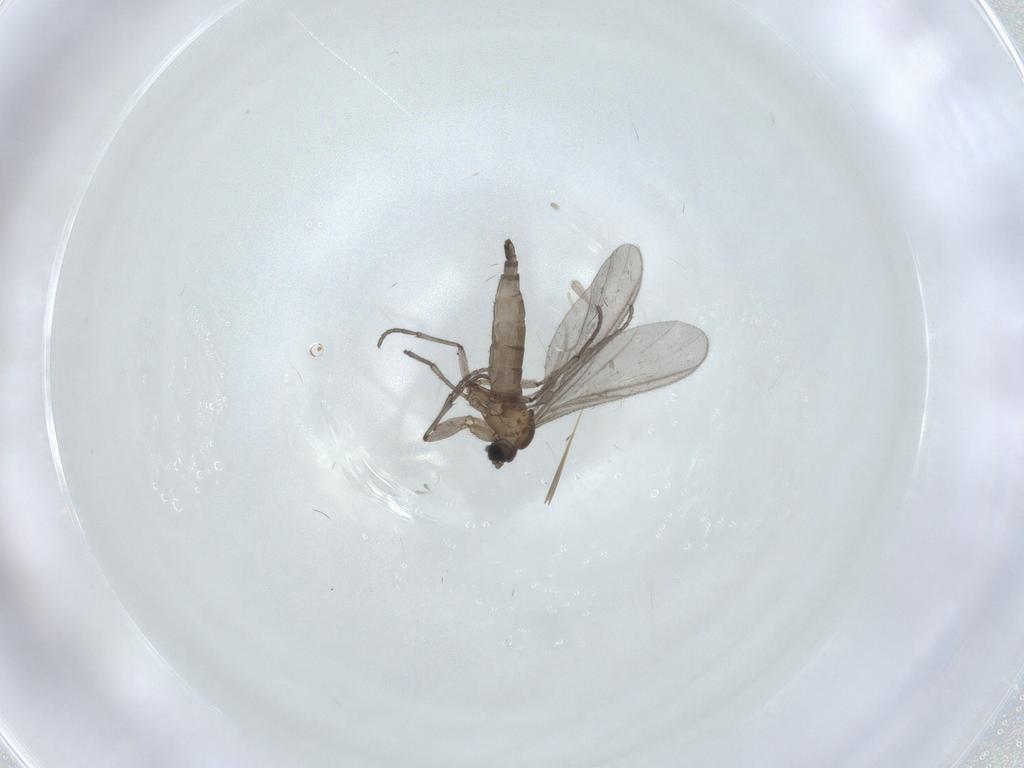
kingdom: Animalia
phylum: Arthropoda
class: Insecta
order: Diptera
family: Sciaridae
